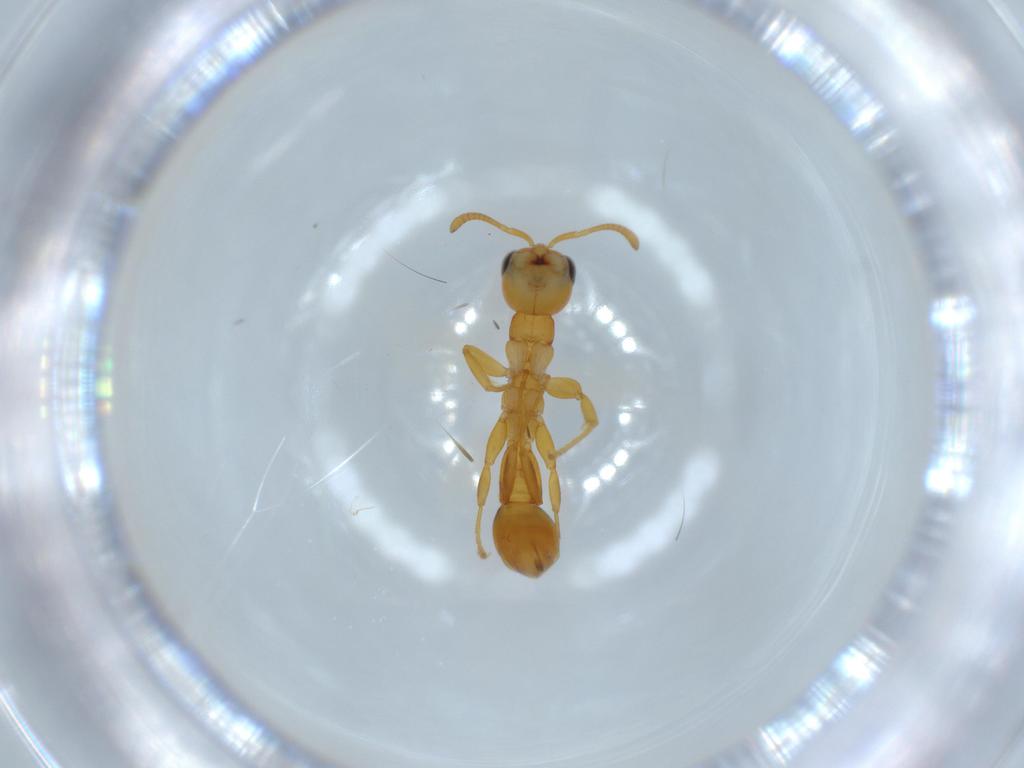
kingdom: Animalia
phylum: Arthropoda
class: Insecta
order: Hymenoptera
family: Formicidae
